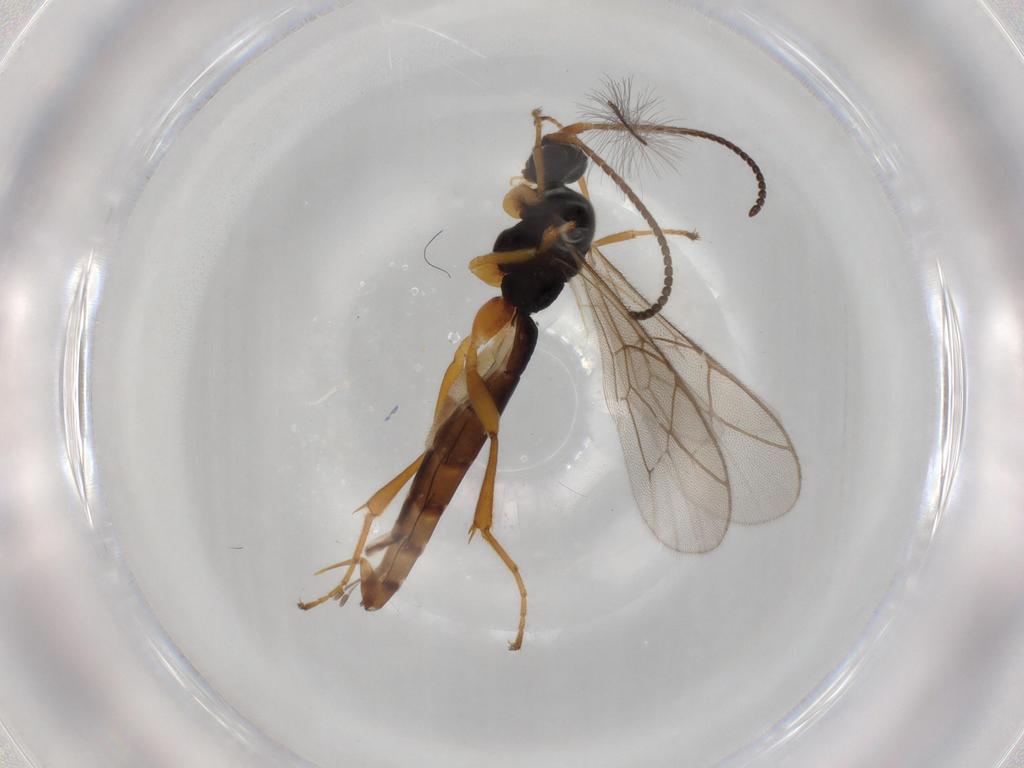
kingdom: Animalia
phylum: Arthropoda
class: Insecta
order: Hymenoptera
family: Ichneumonidae
